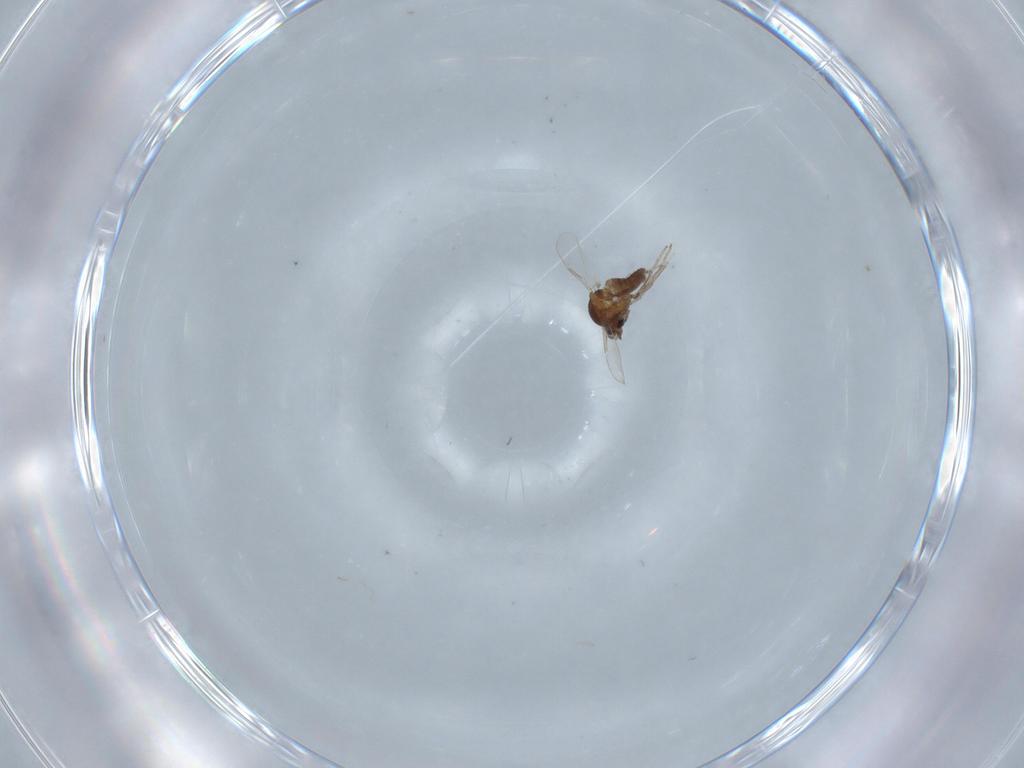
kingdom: Animalia
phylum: Arthropoda
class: Insecta
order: Diptera
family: Ceratopogonidae
